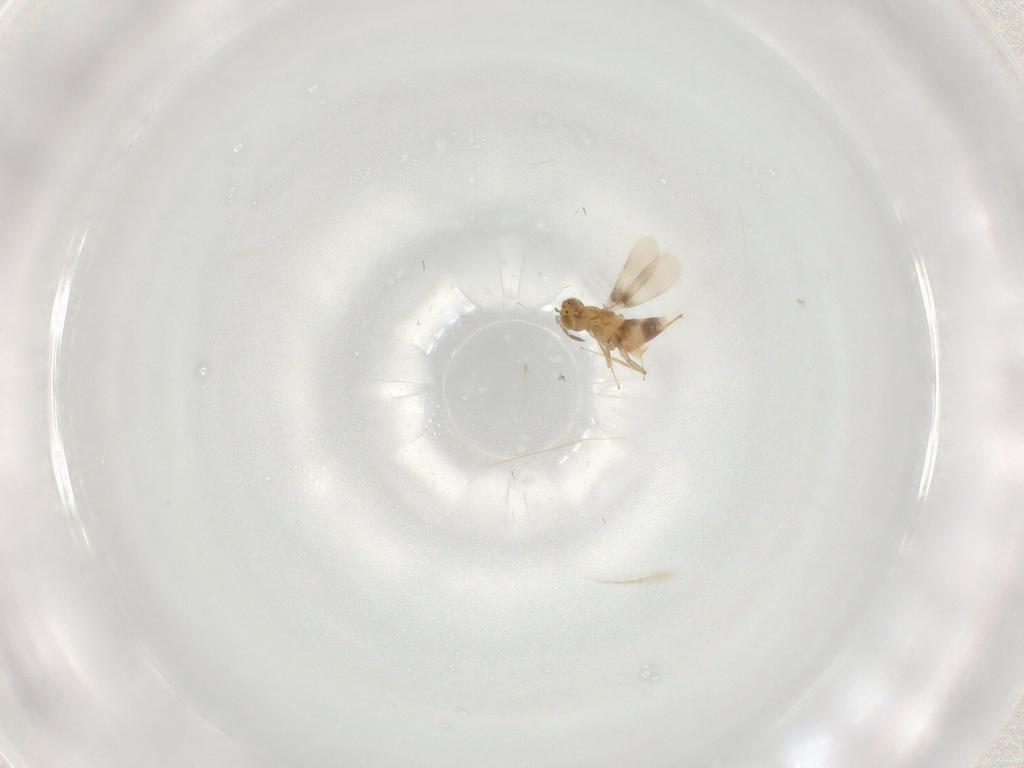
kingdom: Animalia
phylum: Arthropoda
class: Insecta
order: Hymenoptera
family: Aphelinidae
